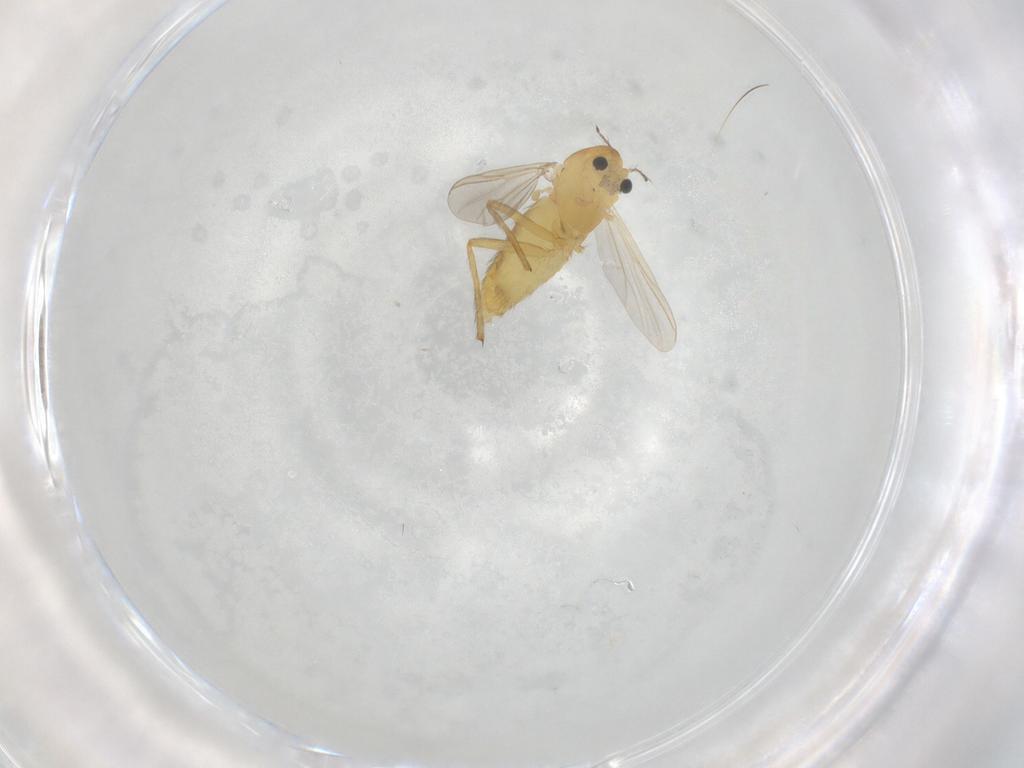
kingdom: Animalia
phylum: Arthropoda
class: Insecta
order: Diptera
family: Chironomidae
